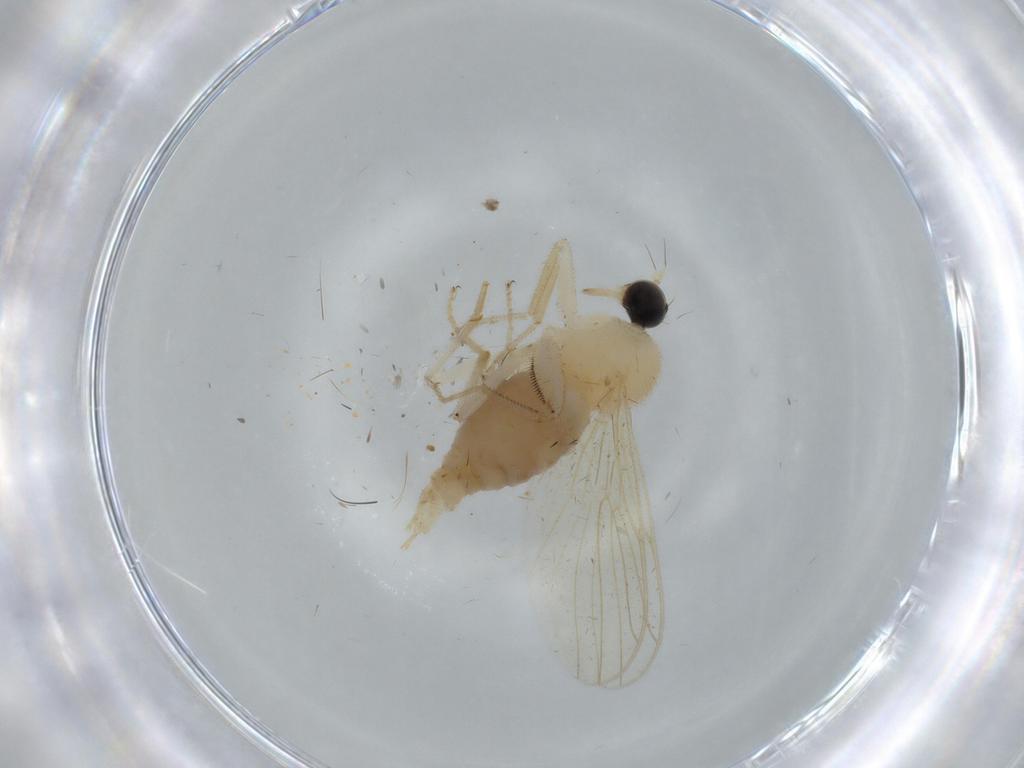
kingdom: Animalia
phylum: Arthropoda
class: Insecta
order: Diptera
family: Hybotidae
